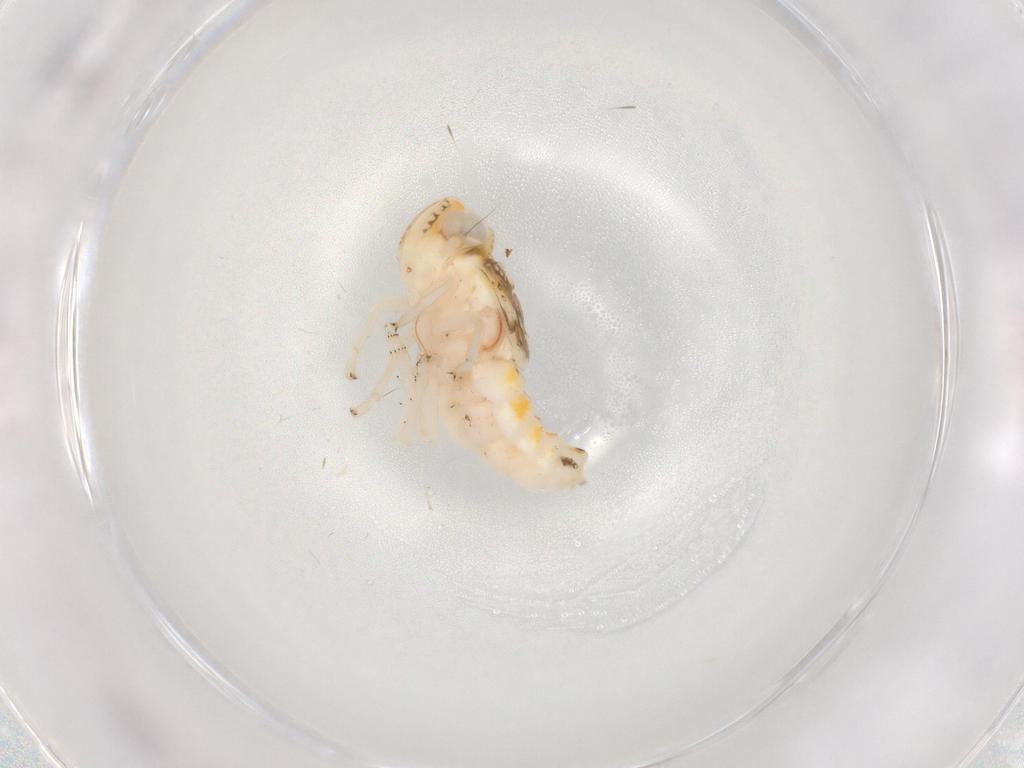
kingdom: Animalia
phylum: Arthropoda
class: Insecta
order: Hemiptera
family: Nogodinidae
